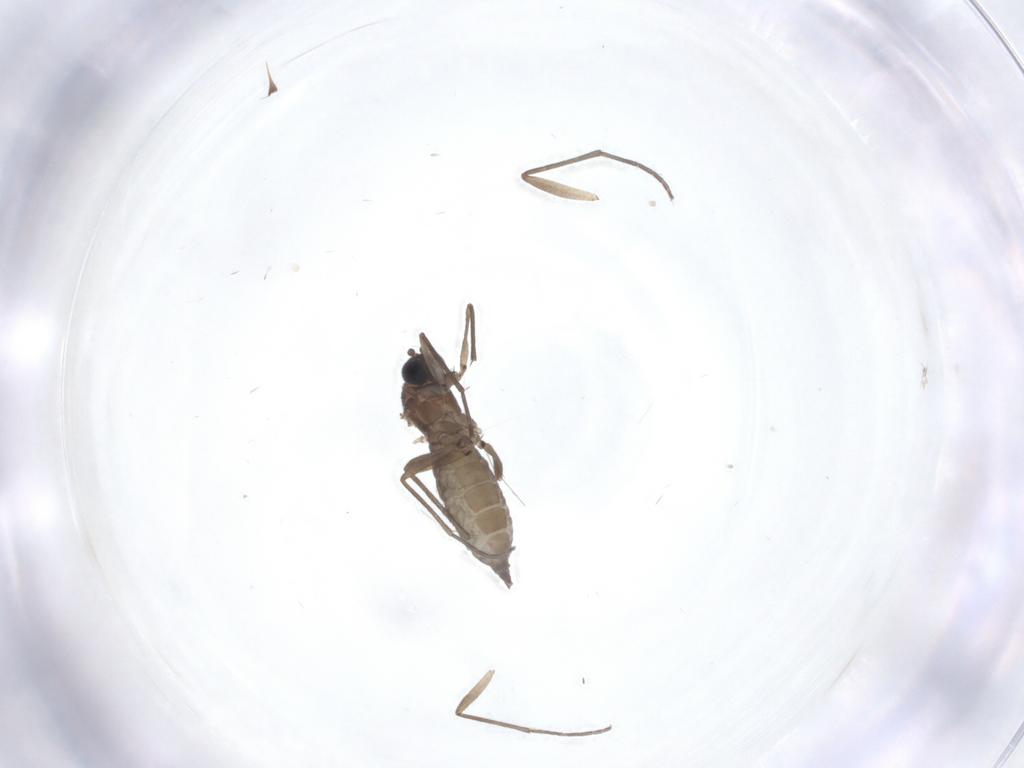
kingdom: Animalia
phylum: Arthropoda
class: Insecta
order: Diptera
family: Sciaridae
